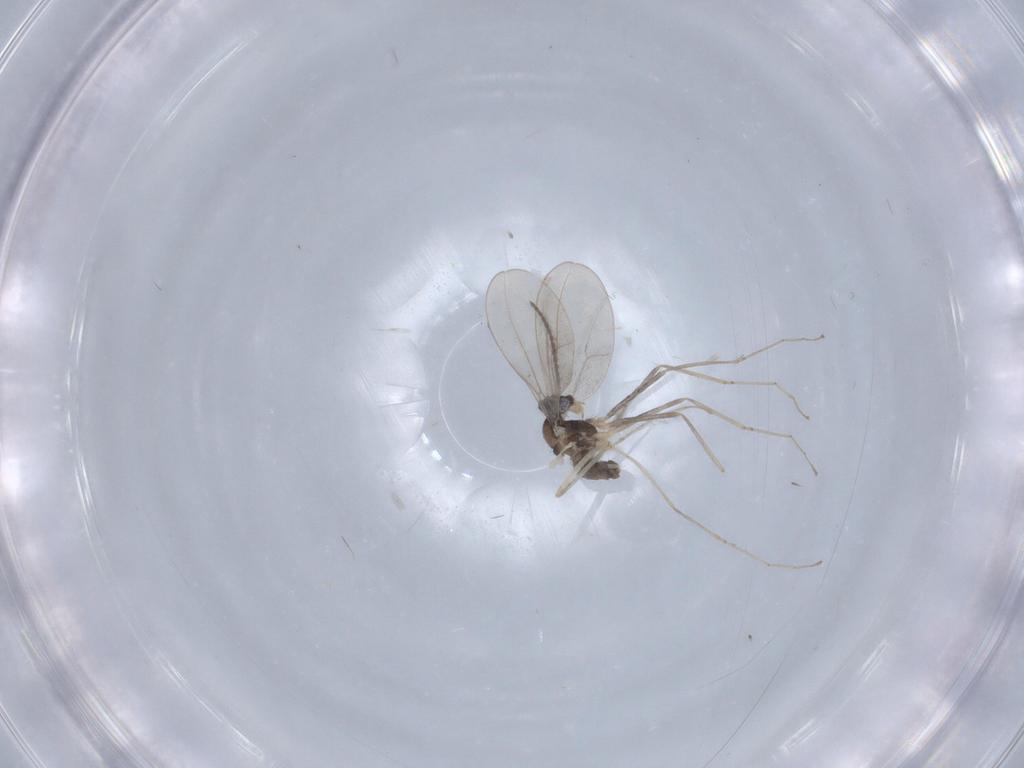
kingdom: Animalia
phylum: Arthropoda
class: Insecta
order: Diptera
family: Cecidomyiidae
